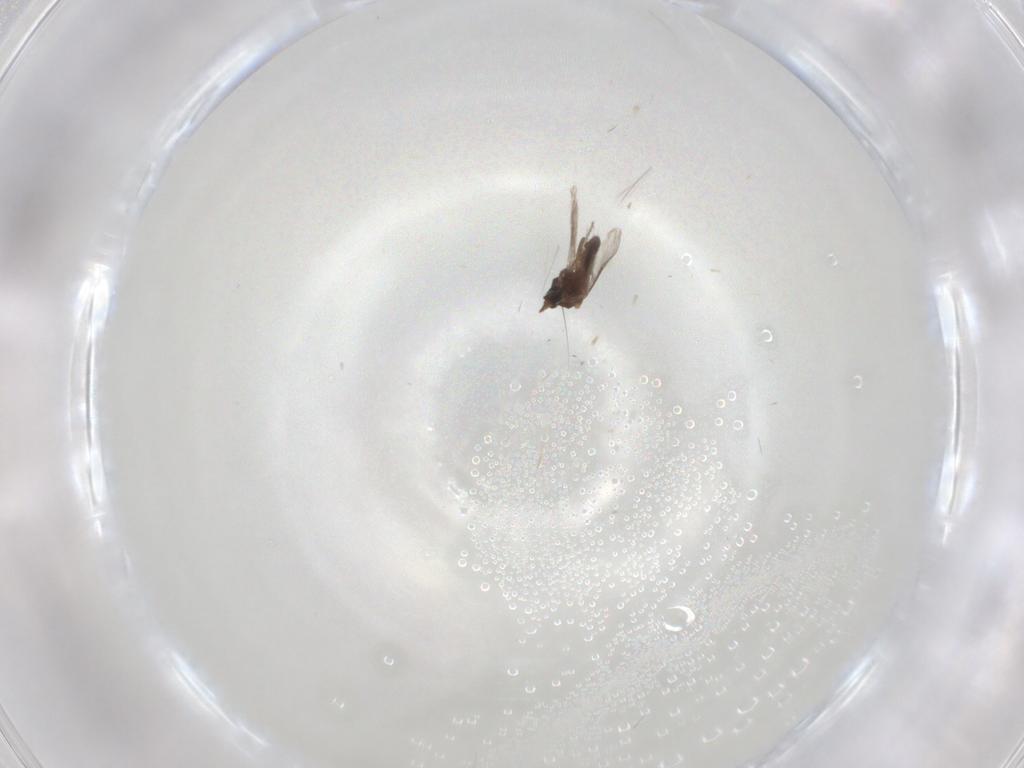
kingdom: Animalia
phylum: Arthropoda
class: Insecta
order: Diptera
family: Ceratopogonidae
